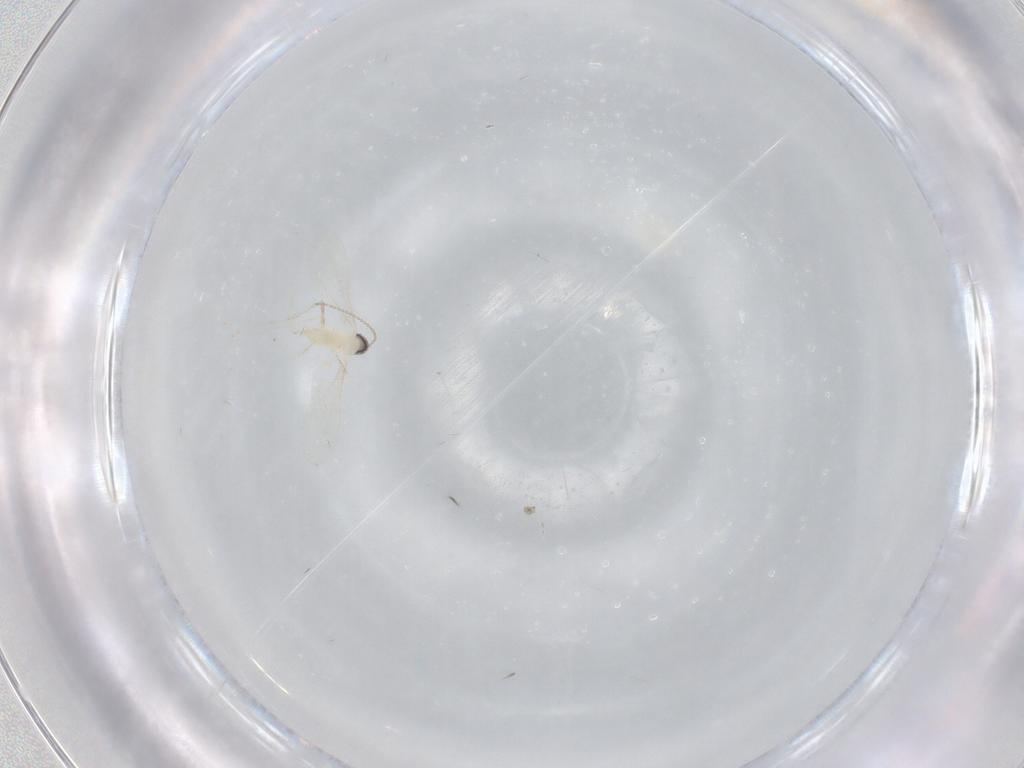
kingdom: Animalia
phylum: Arthropoda
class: Insecta
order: Diptera
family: Cecidomyiidae
